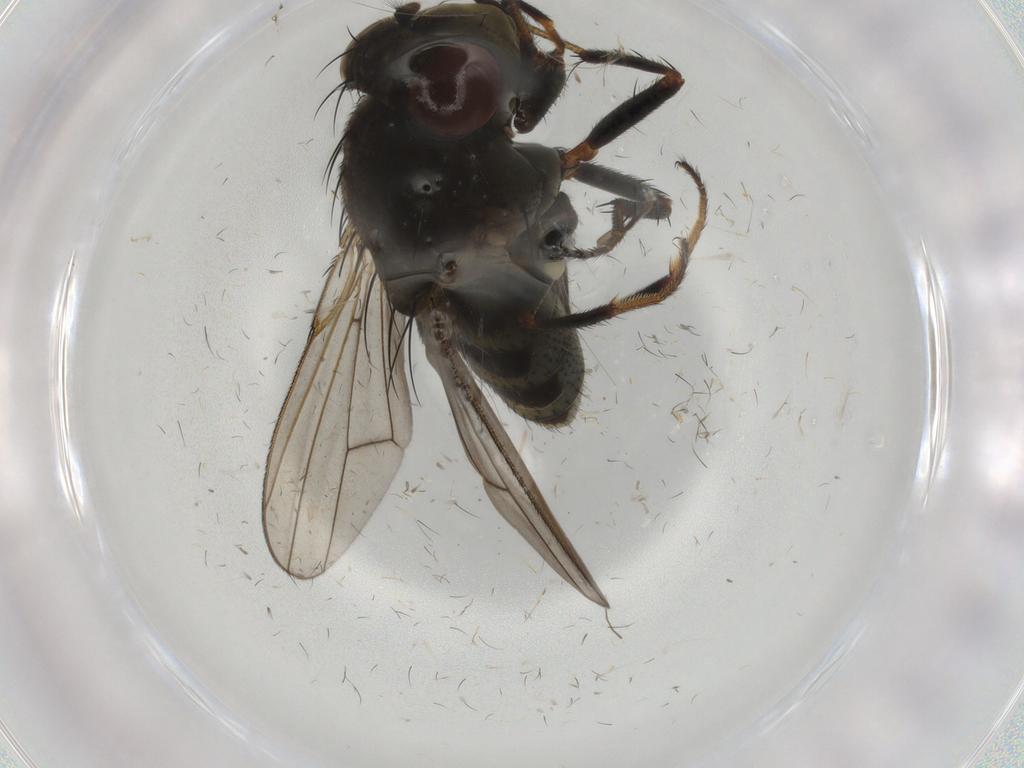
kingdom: Animalia
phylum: Arthropoda
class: Insecta
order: Diptera
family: Ephydridae
